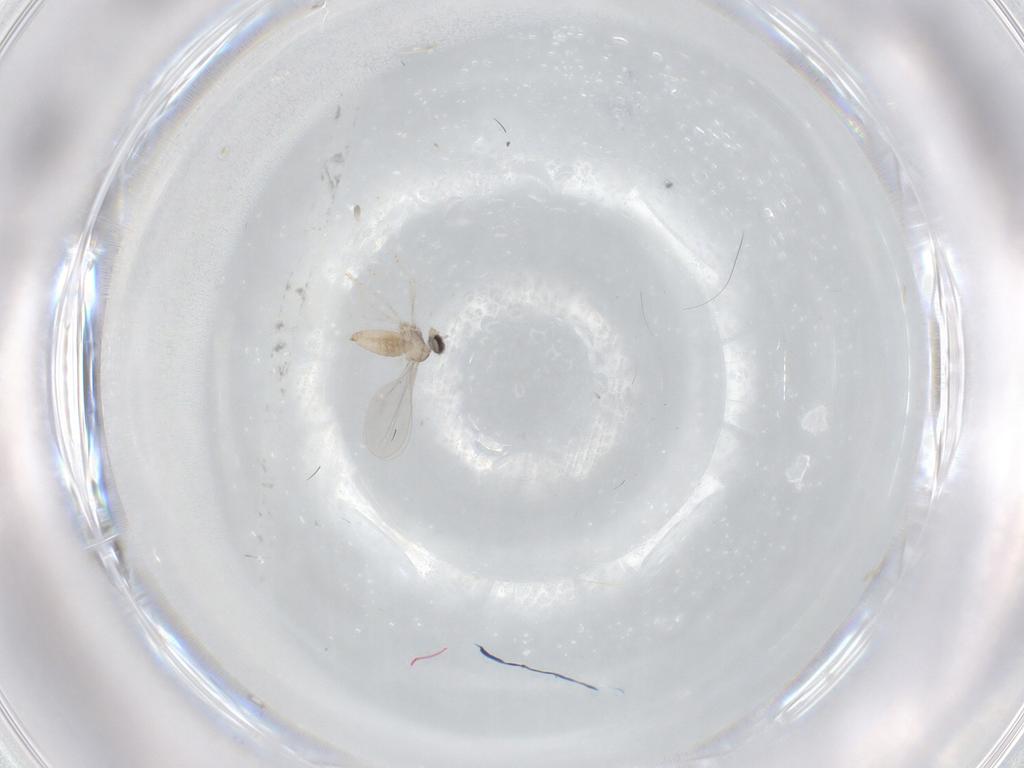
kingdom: Animalia
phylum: Arthropoda
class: Insecta
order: Diptera
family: Cecidomyiidae
